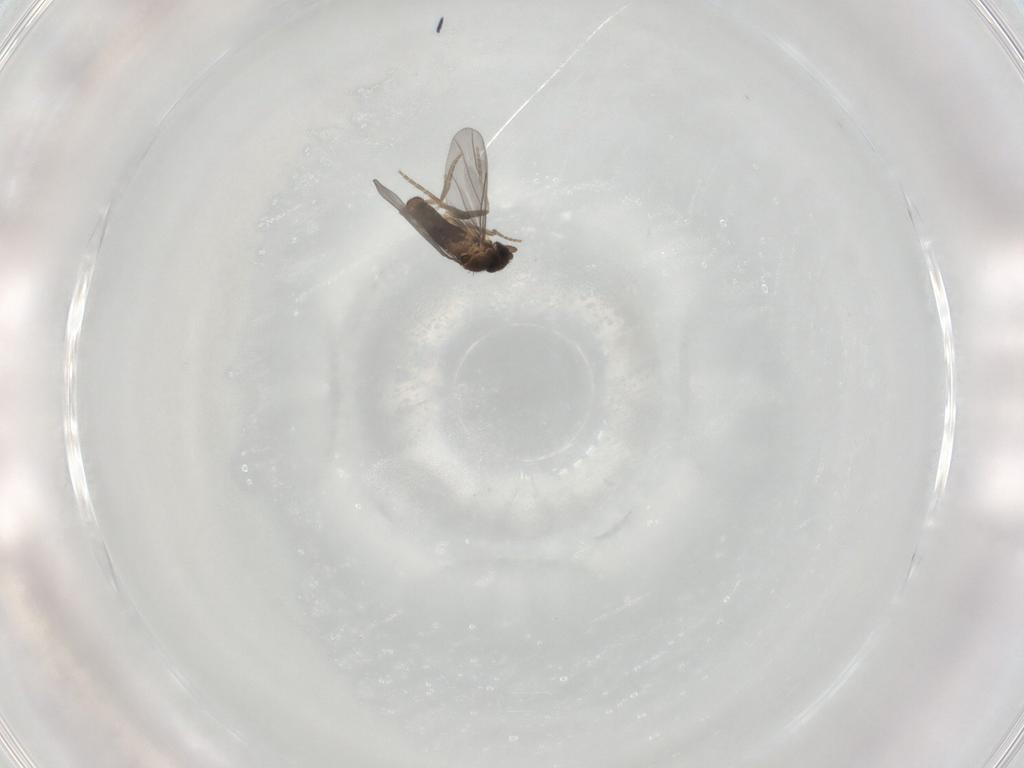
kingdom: Animalia
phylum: Arthropoda
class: Insecta
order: Diptera
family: Phoridae
